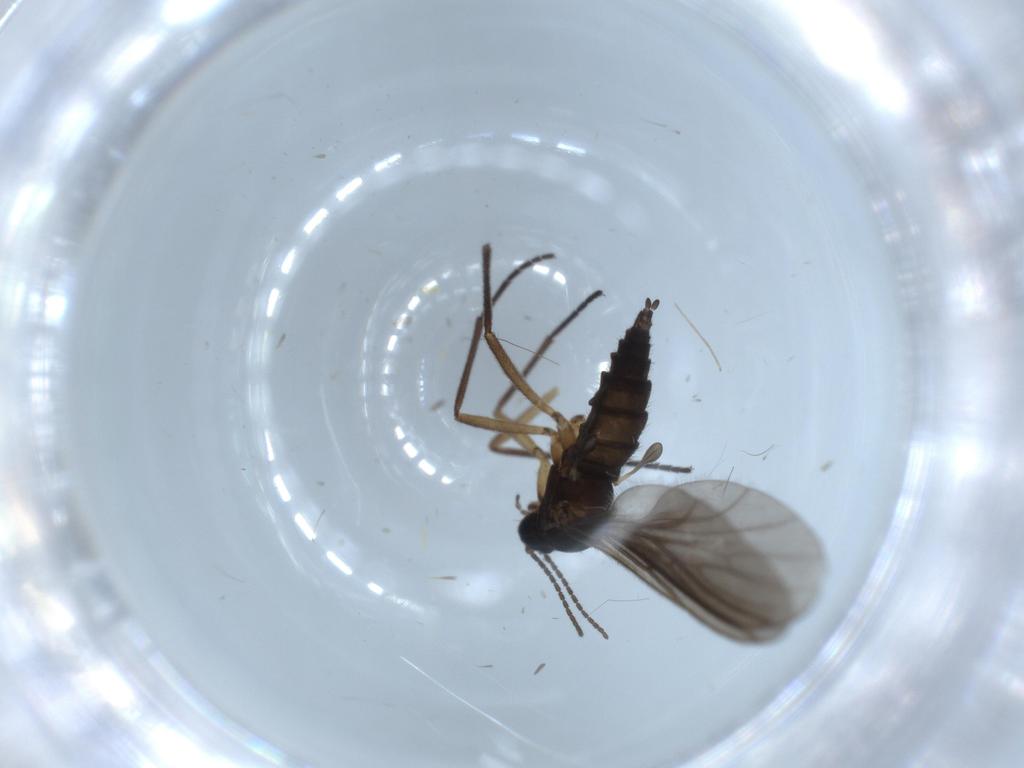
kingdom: Animalia
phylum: Arthropoda
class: Insecta
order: Diptera
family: Sciaridae
